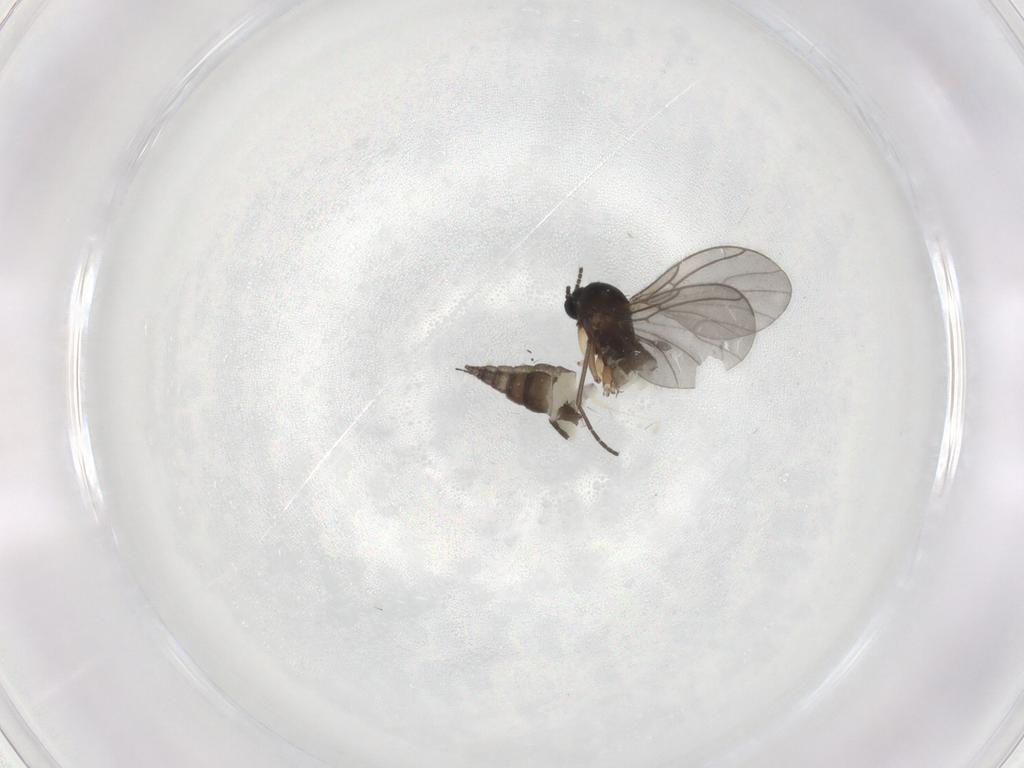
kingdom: Animalia
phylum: Arthropoda
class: Insecta
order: Diptera
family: Sciaridae
